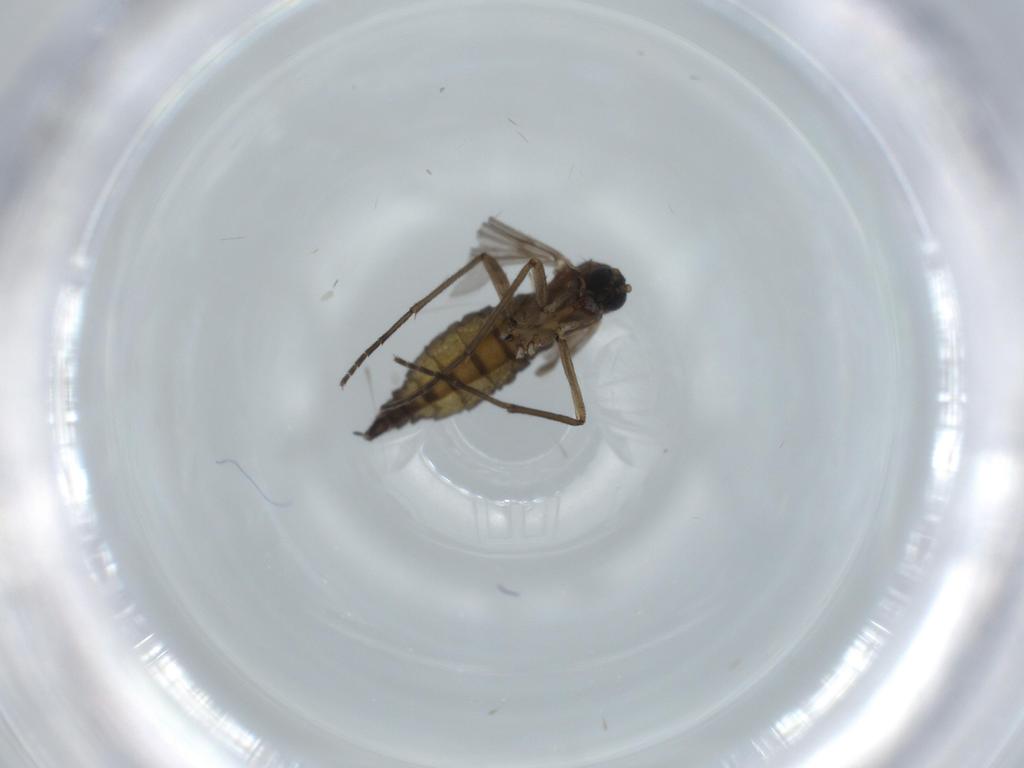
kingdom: Animalia
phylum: Arthropoda
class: Insecta
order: Diptera
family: Sciaridae
